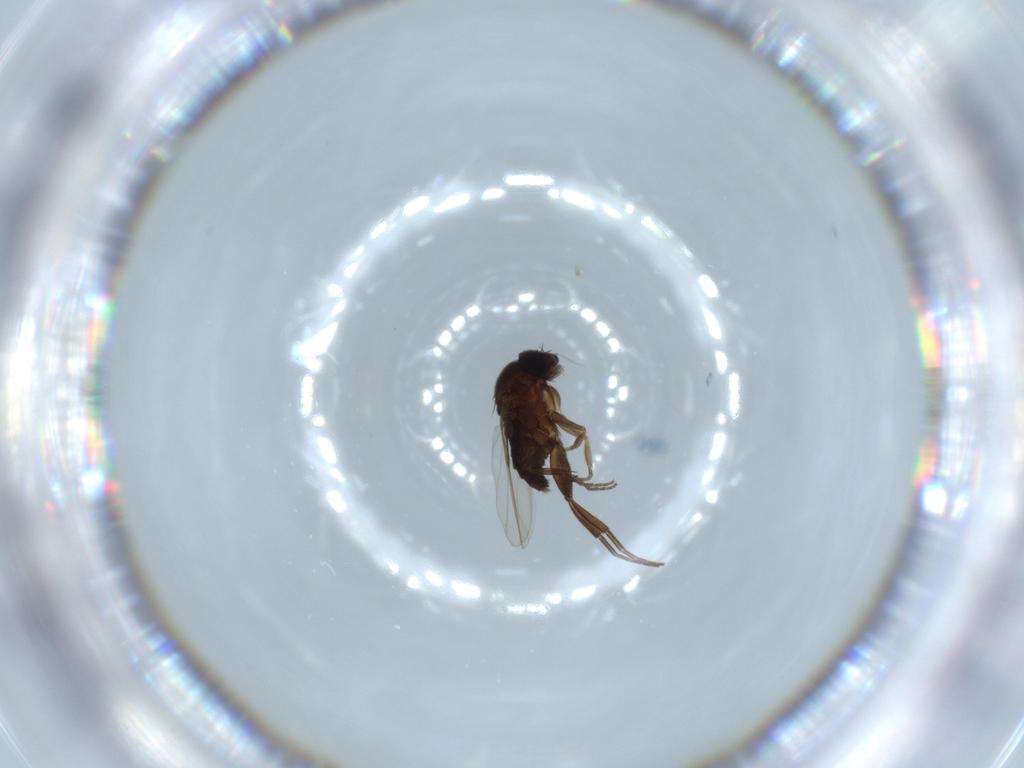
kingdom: Animalia
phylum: Arthropoda
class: Insecta
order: Diptera
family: Phoridae
